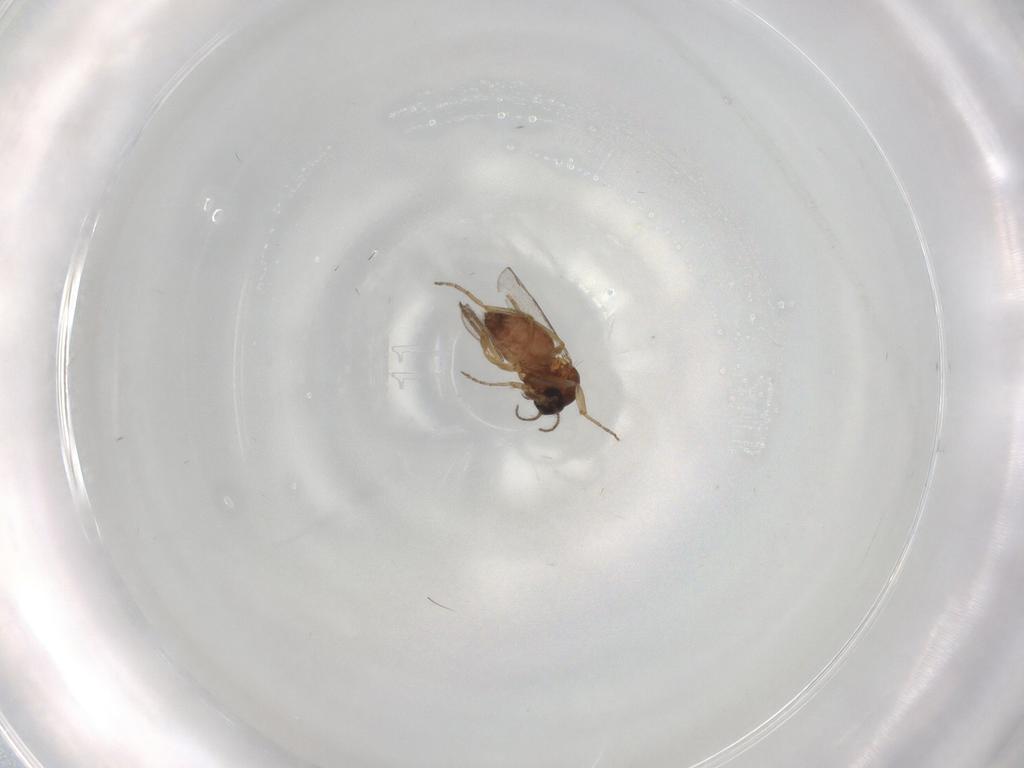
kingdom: Animalia
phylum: Arthropoda
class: Insecta
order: Diptera
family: Ceratopogonidae
